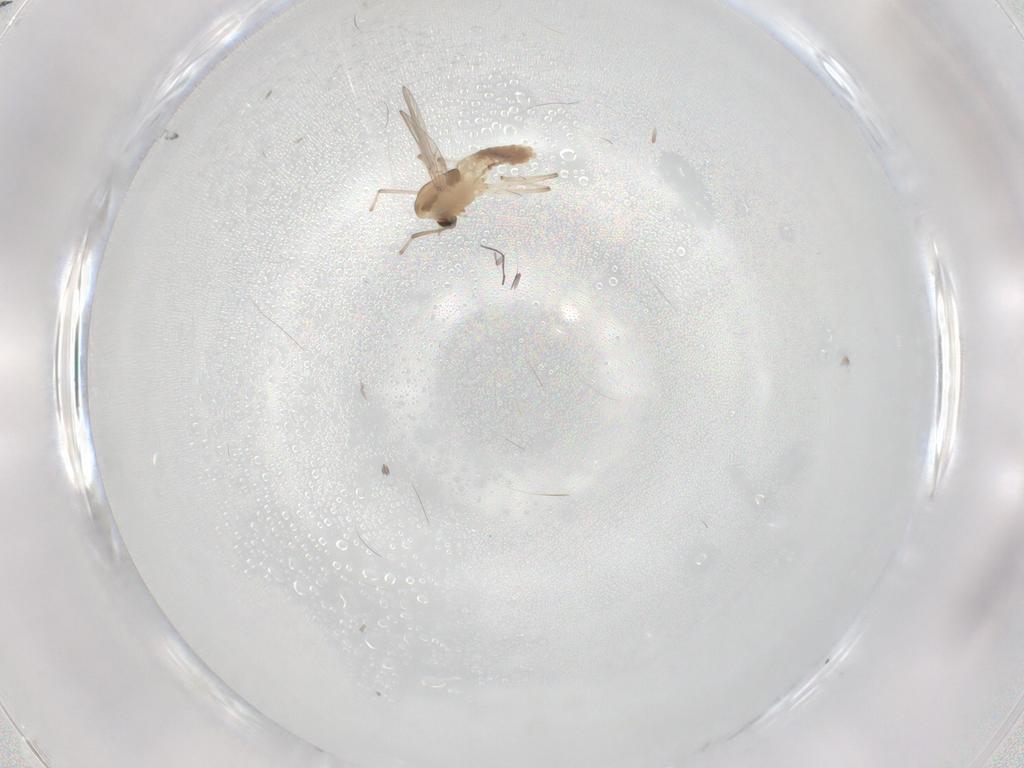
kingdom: Animalia
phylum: Arthropoda
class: Insecta
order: Diptera
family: Chironomidae
